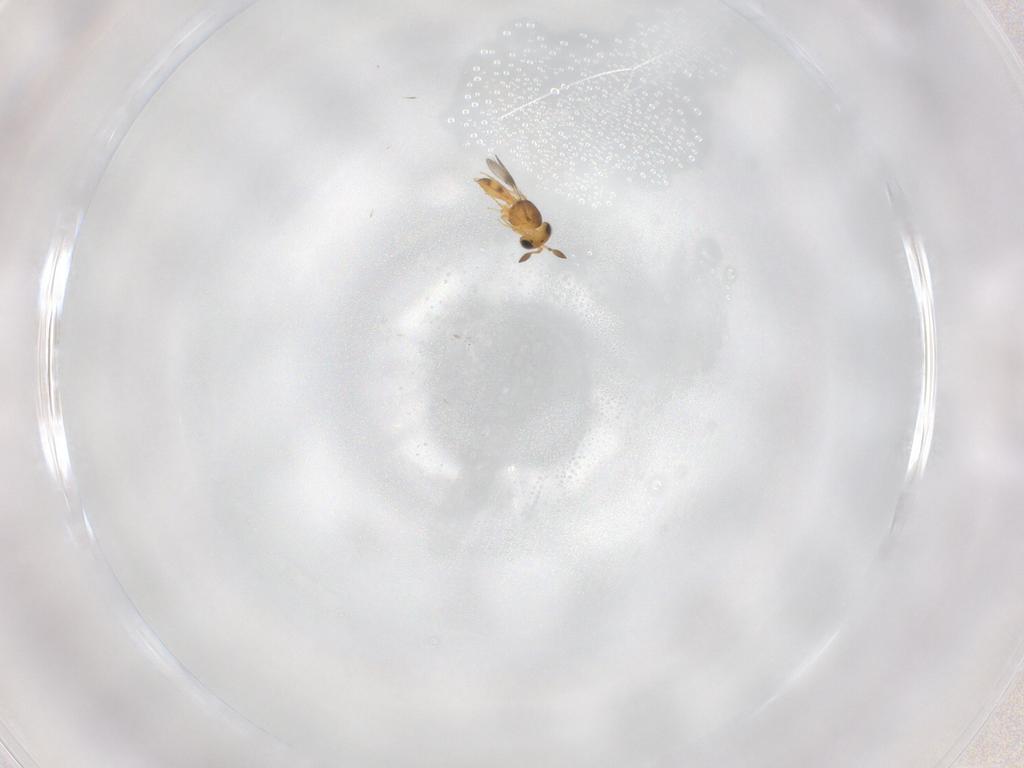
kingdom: Animalia
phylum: Arthropoda
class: Insecta
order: Hymenoptera
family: Scelionidae
